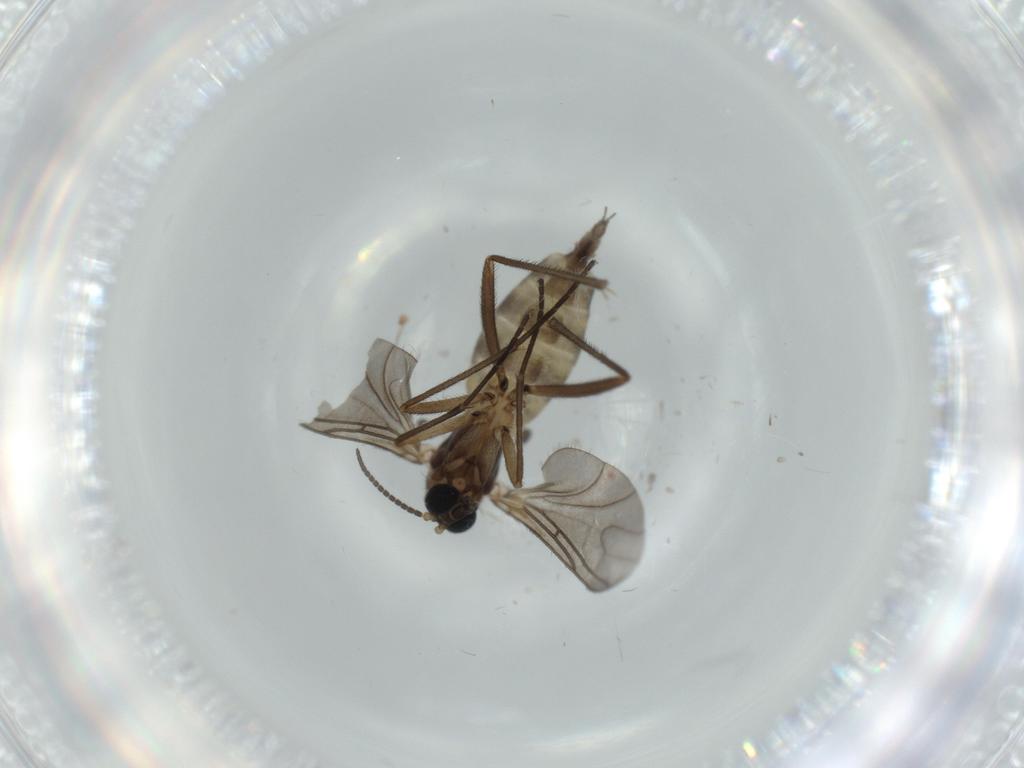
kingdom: Animalia
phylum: Arthropoda
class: Insecta
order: Diptera
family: Sciaridae
